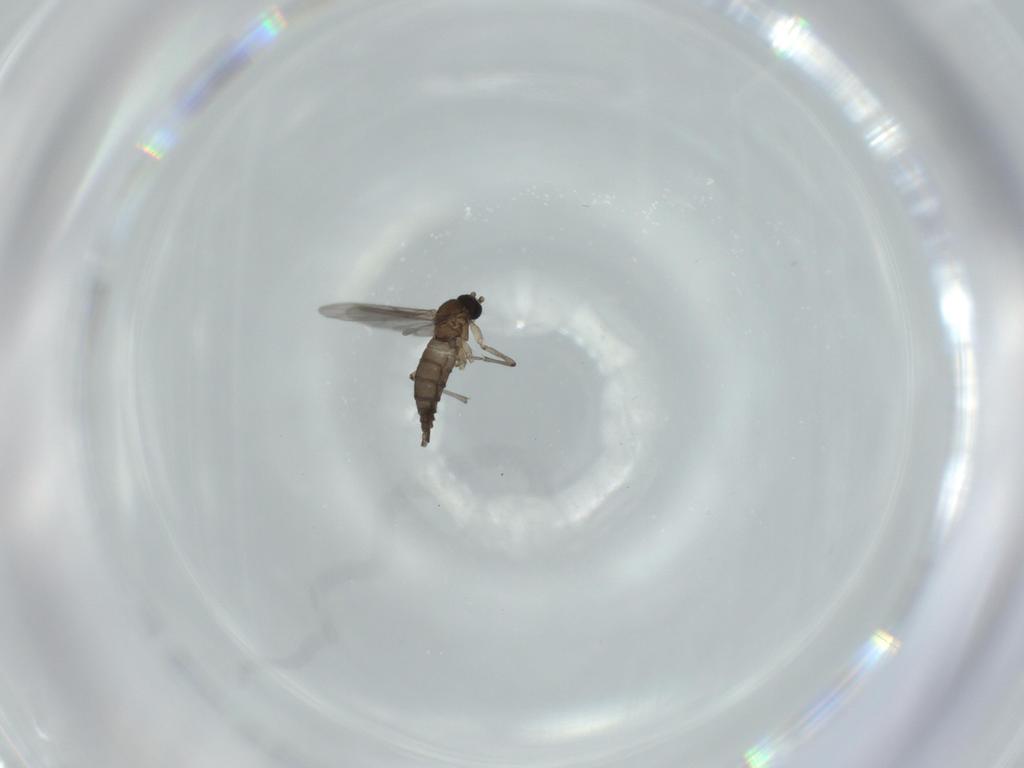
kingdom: Animalia
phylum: Arthropoda
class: Insecta
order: Diptera
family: Sciaridae
